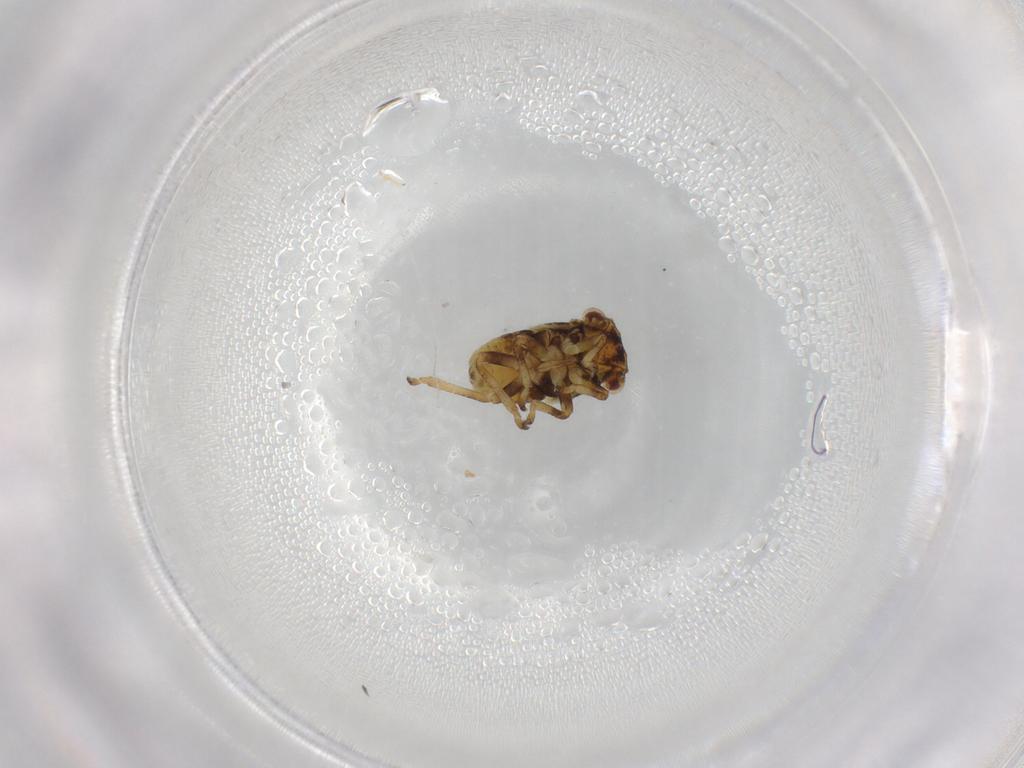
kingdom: Animalia
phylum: Arthropoda
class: Insecta
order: Hemiptera
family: Cicadellidae
